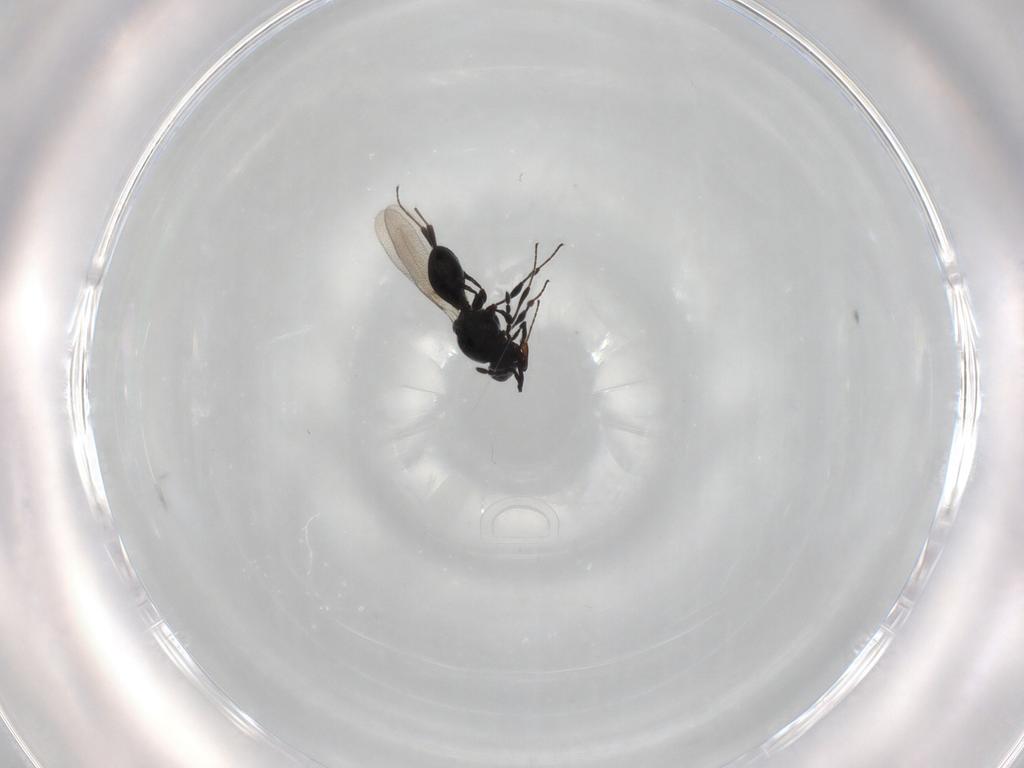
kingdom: Animalia
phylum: Arthropoda
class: Insecta
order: Hymenoptera
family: Platygastridae
